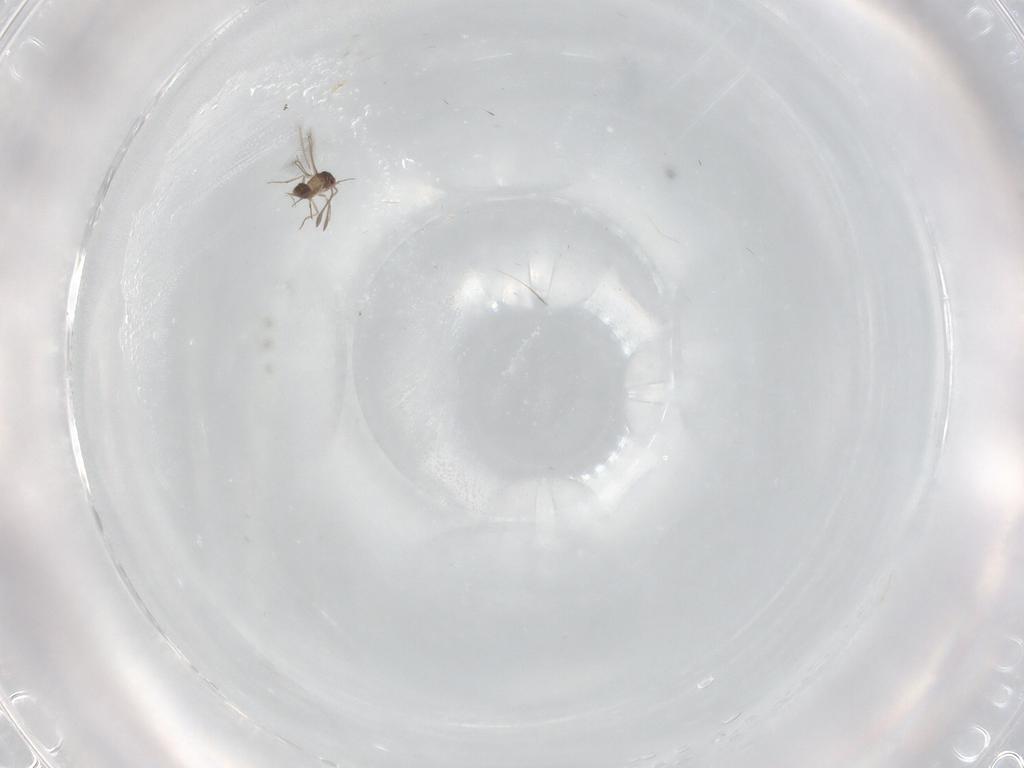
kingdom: Animalia
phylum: Arthropoda
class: Insecta
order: Hymenoptera
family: Mymaridae
